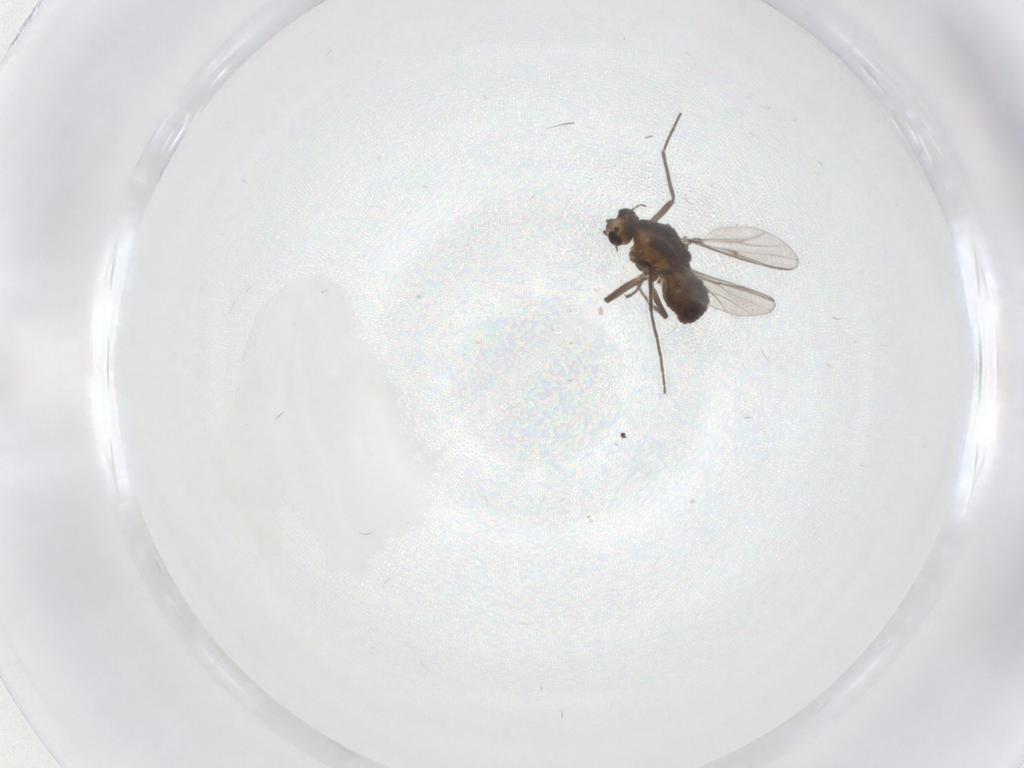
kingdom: Animalia
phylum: Arthropoda
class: Insecta
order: Diptera
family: Chironomidae
